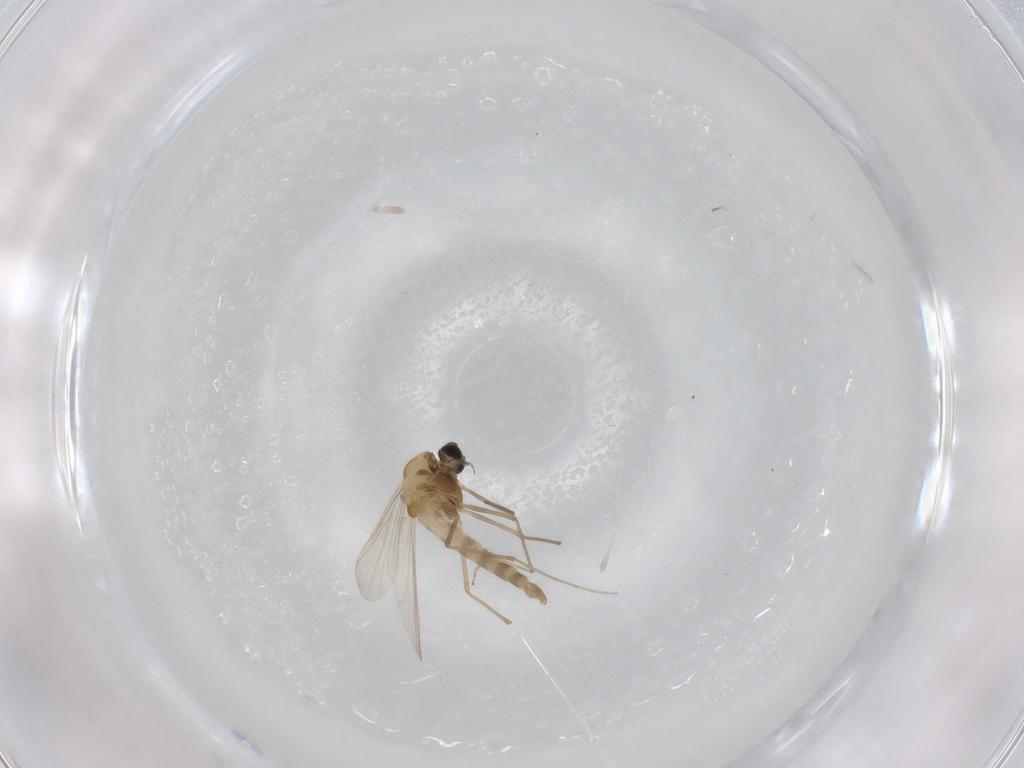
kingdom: Animalia
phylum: Arthropoda
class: Insecta
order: Diptera
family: Chironomidae
